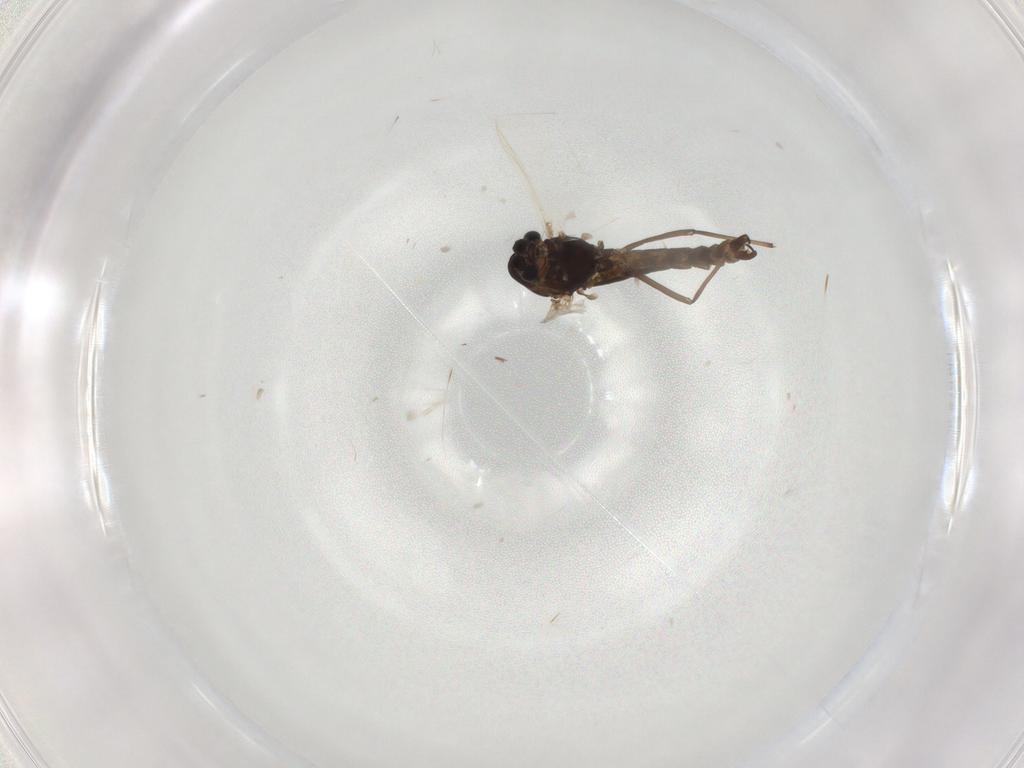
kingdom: Animalia
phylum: Arthropoda
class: Insecta
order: Diptera
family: Chironomidae
